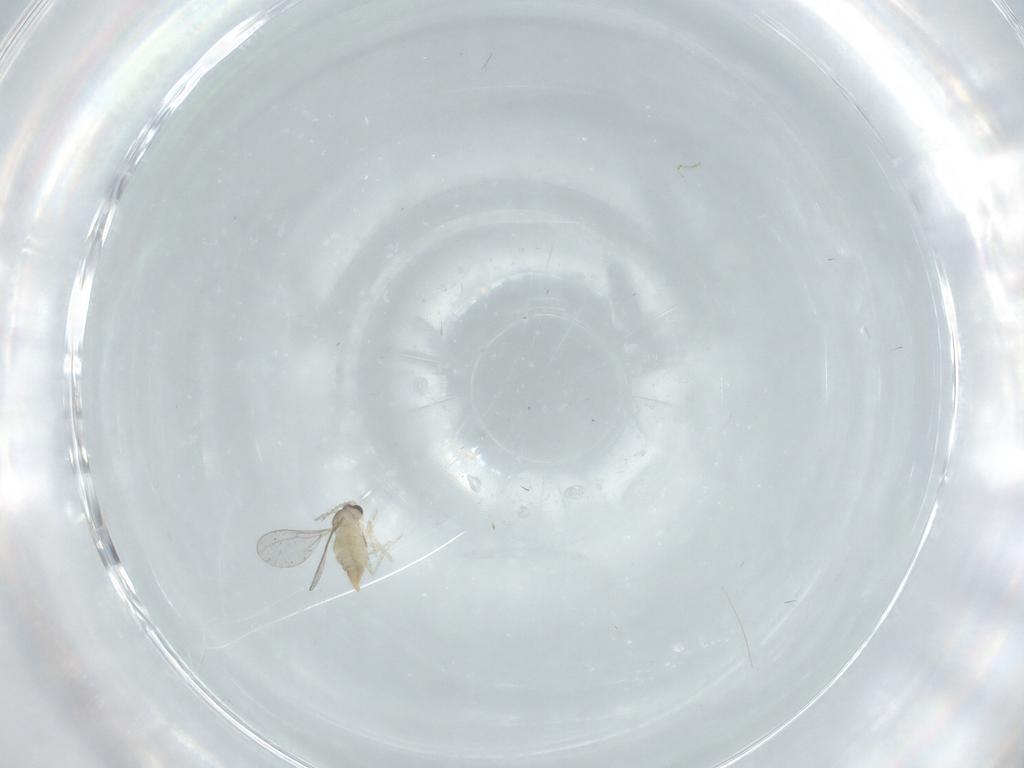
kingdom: Animalia
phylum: Arthropoda
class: Insecta
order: Diptera
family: Cecidomyiidae
